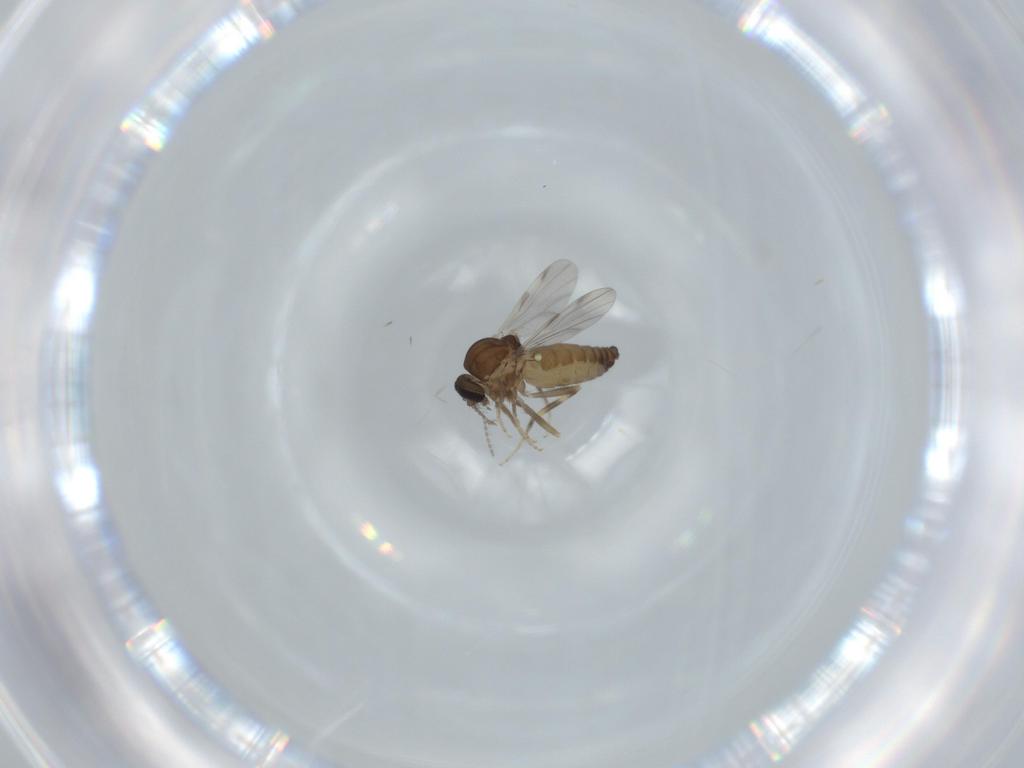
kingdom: Animalia
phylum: Arthropoda
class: Insecta
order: Diptera
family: Ceratopogonidae
